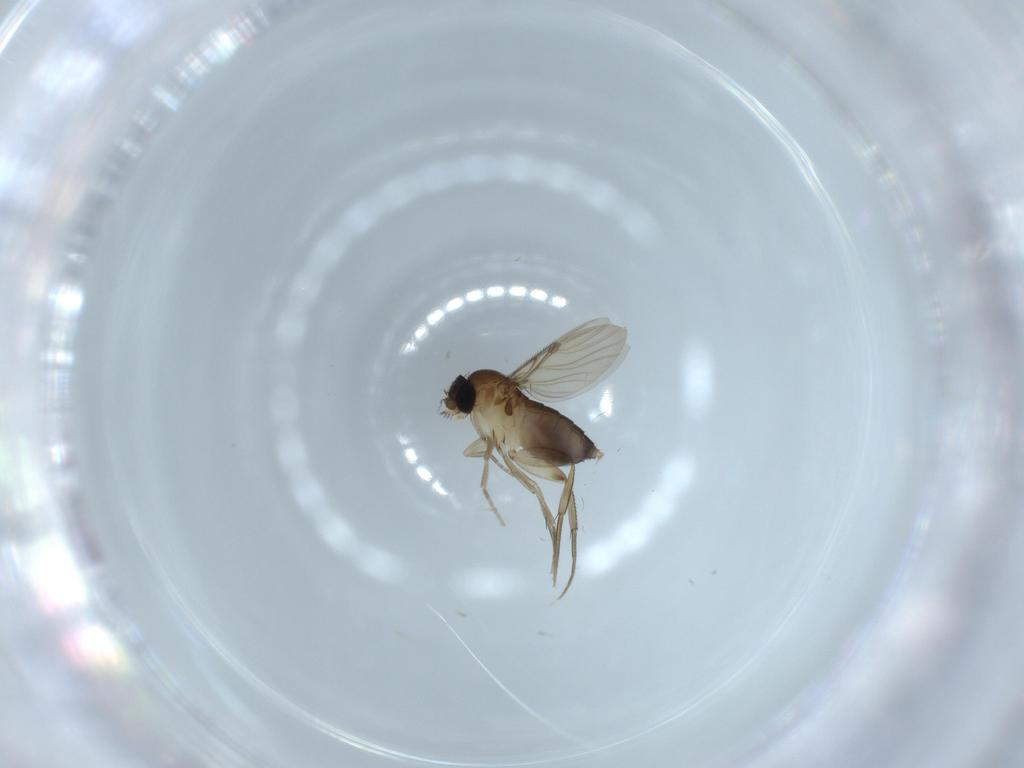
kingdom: Animalia
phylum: Arthropoda
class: Insecta
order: Diptera
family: Phoridae
